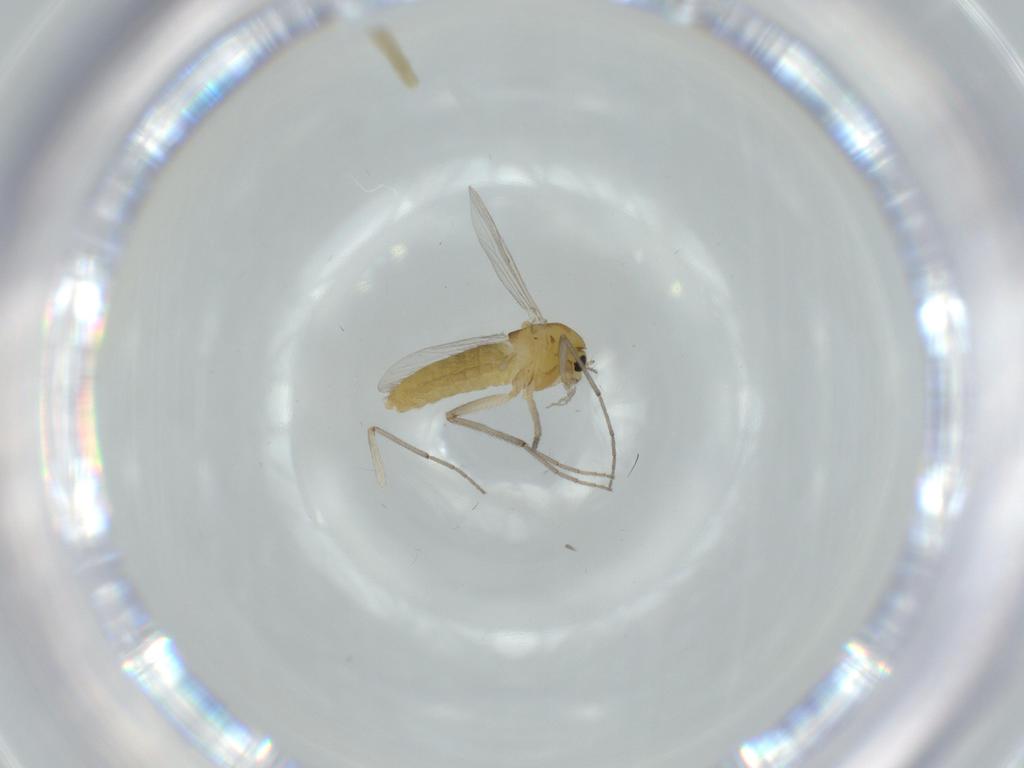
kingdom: Animalia
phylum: Arthropoda
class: Insecta
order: Diptera
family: Chironomidae
